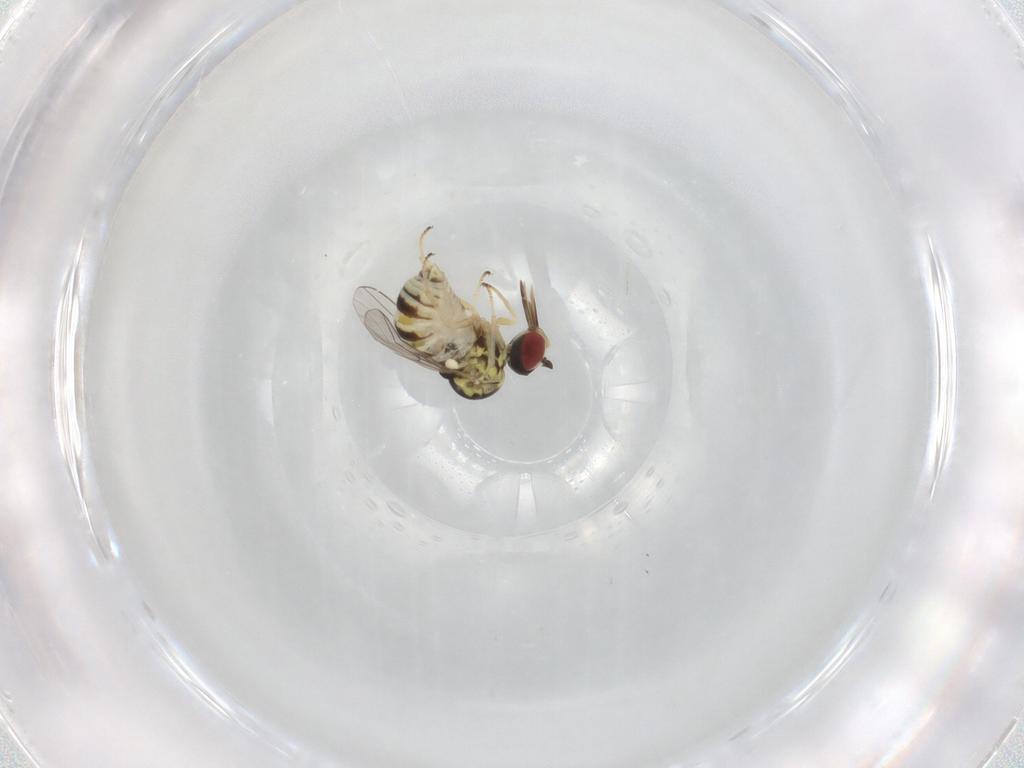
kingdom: Animalia
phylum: Arthropoda
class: Insecta
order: Diptera
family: Bombyliidae
